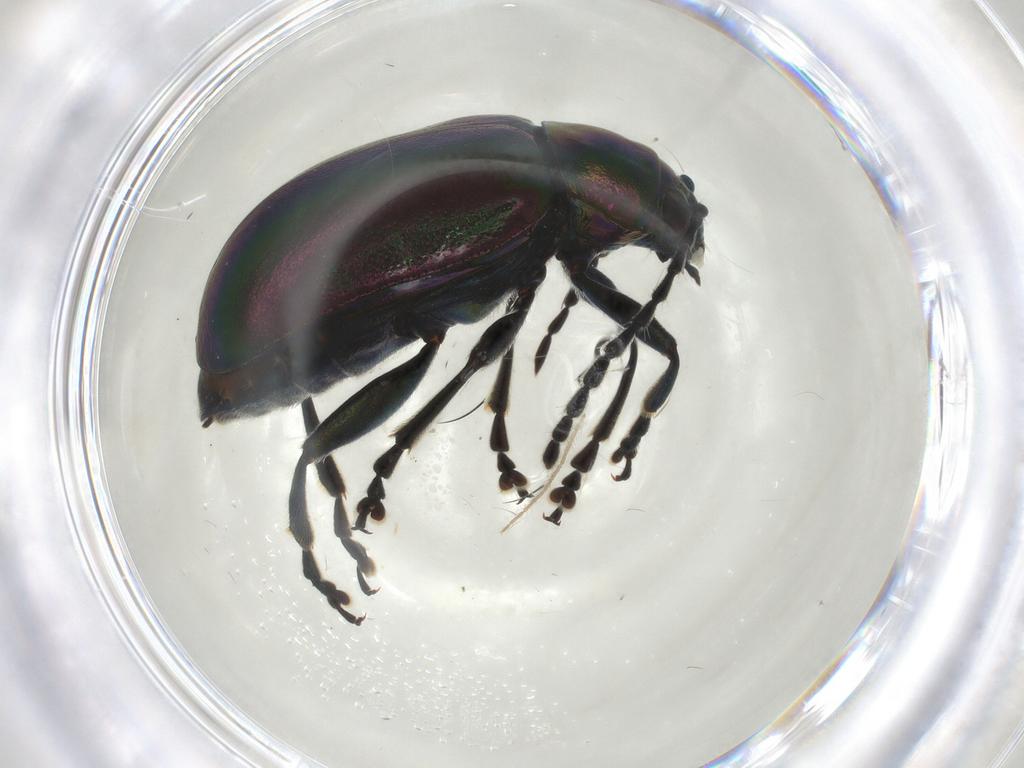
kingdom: Animalia
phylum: Arthropoda
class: Insecta
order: Coleoptera
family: Chrysomelidae
